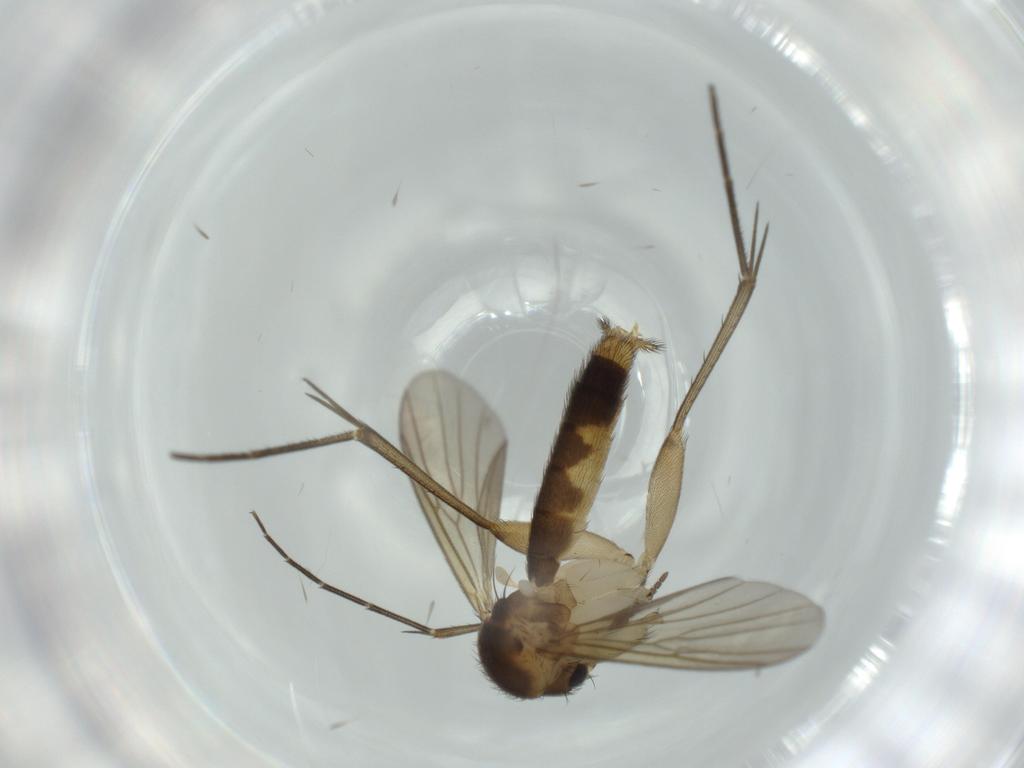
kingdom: Animalia
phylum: Arthropoda
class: Insecta
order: Diptera
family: Mycetophilidae
